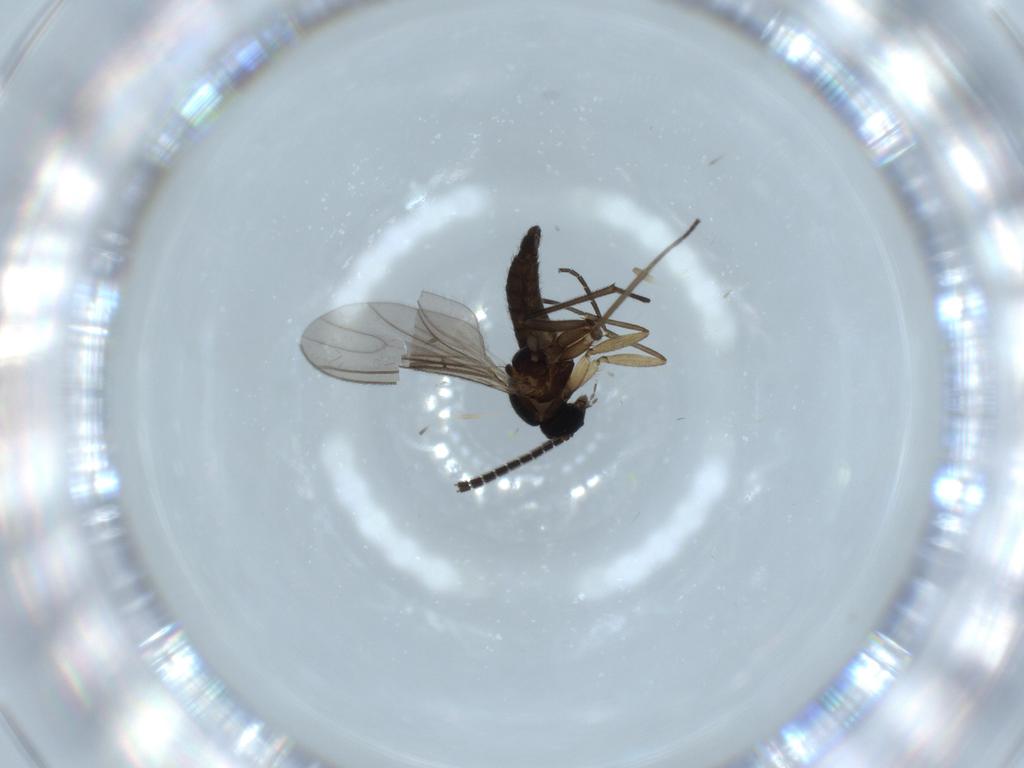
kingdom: Animalia
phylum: Arthropoda
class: Insecta
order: Diptera
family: Sciaridae
